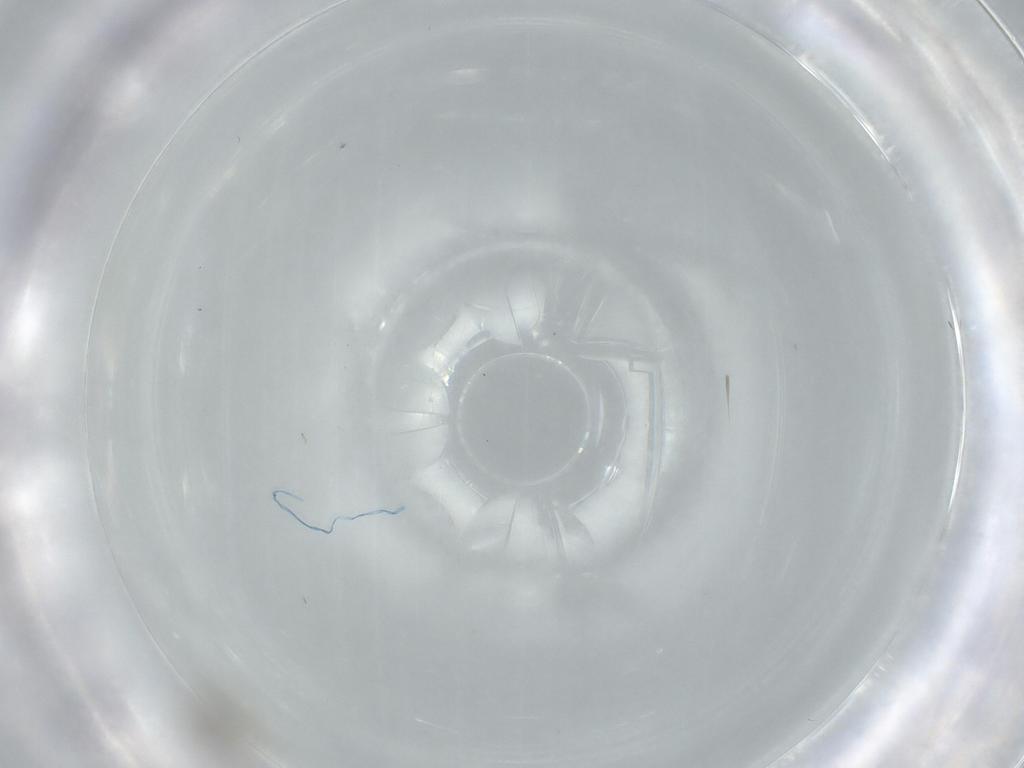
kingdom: Animalia
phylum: Arthropoda
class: Insecta
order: Diptera
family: Cecidomyiidae
